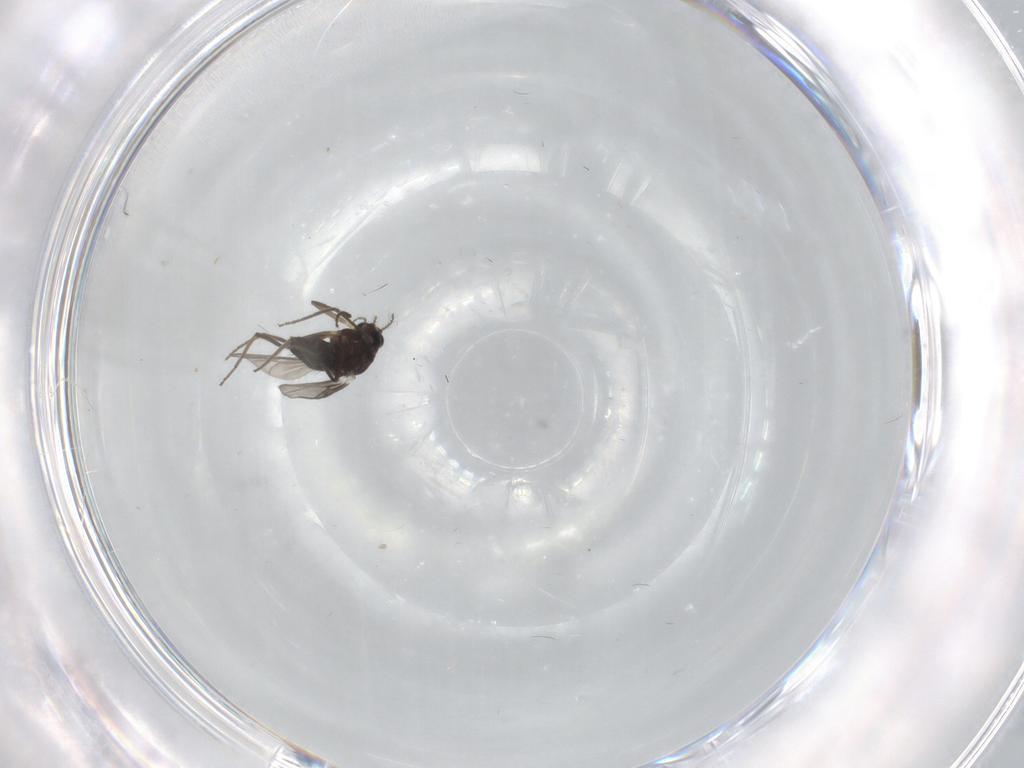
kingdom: Animalia
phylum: Arthropoda
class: Insecta
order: Diptera
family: Chironomidae
